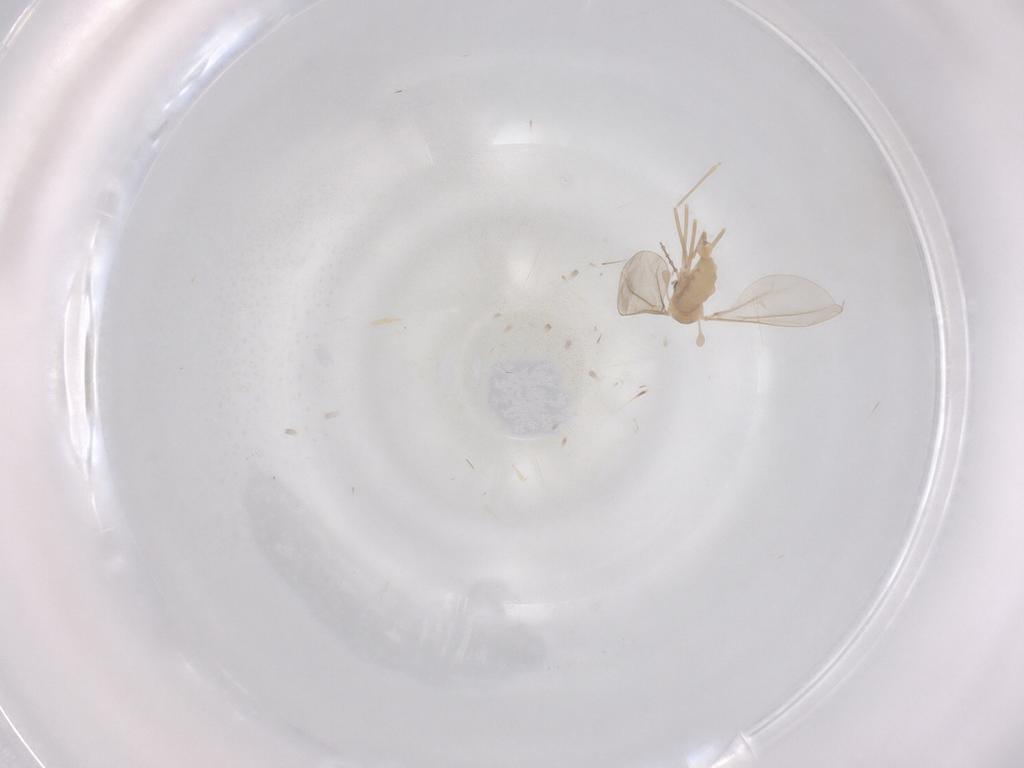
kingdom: Animalia
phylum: Arthropoda
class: Insecta
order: Diptera
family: Cecidomyiidae
